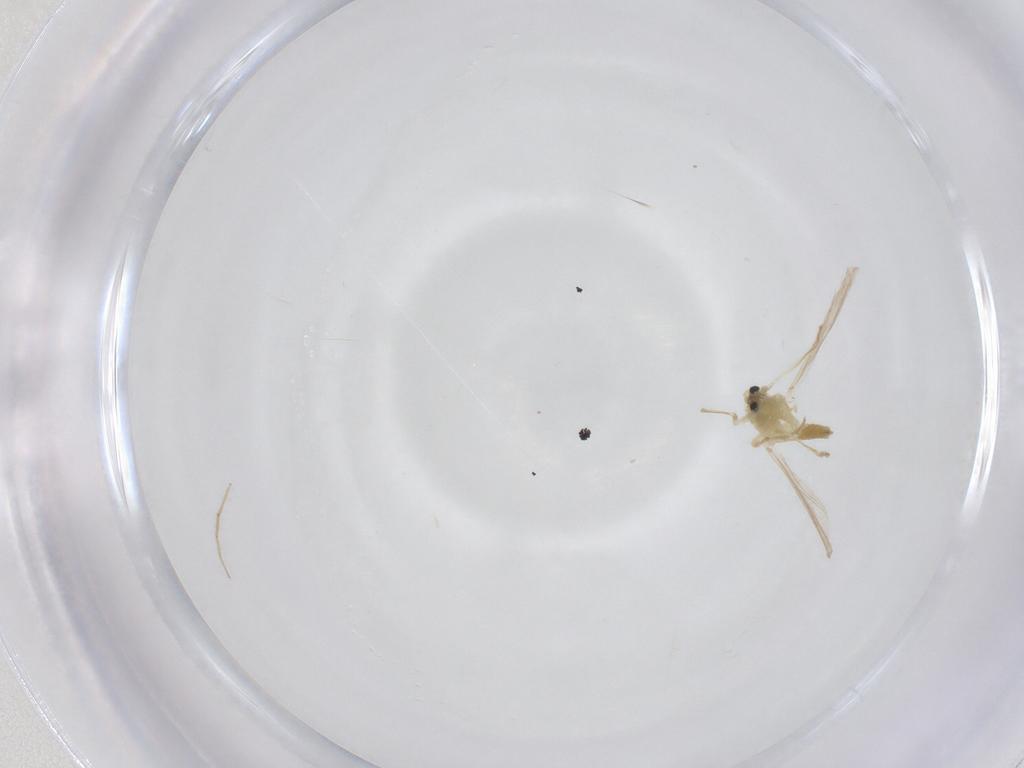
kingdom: Animalia
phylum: Arthropoda
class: Insecta
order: Diptera
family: Chironomidae
